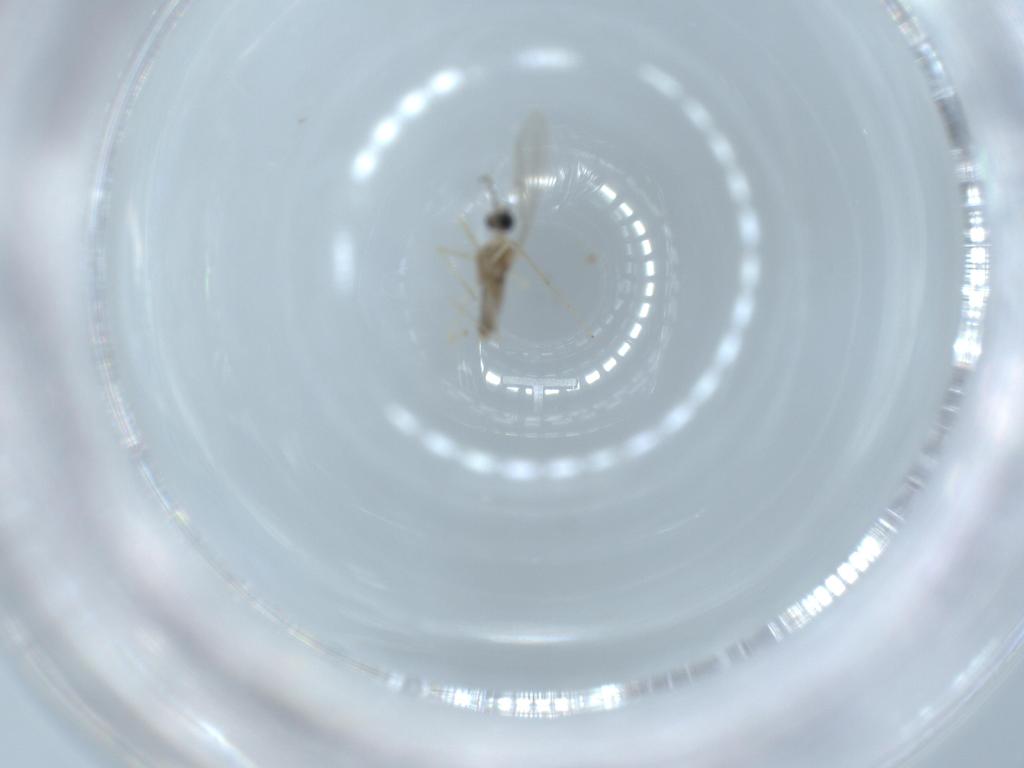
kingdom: Animalia
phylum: Arthropoda
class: Insecta
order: Diptera
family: Cecidomyiidae
